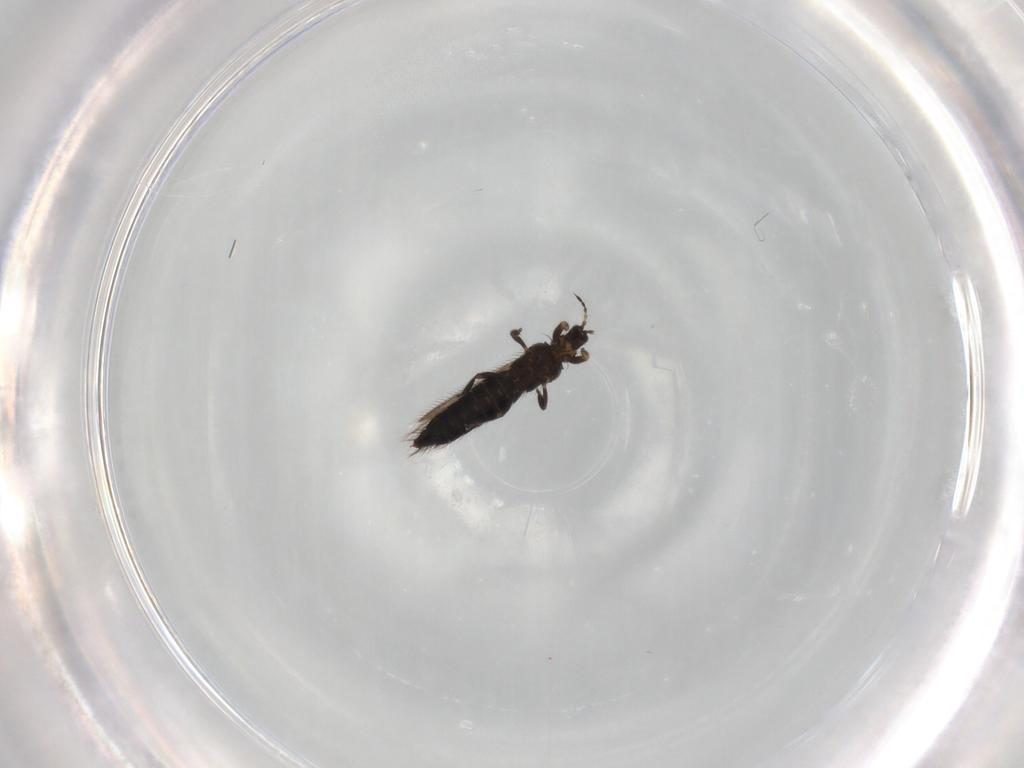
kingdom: Animalia
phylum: Arthropoda
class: Insecta
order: Thysanoptera
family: Thripidae
